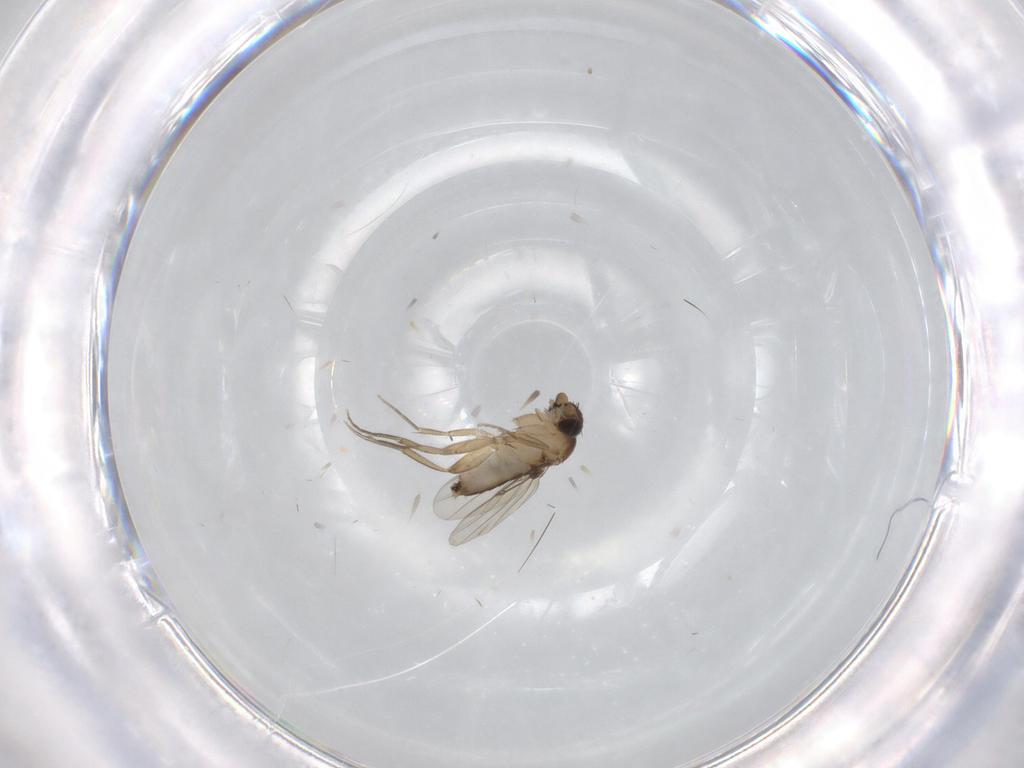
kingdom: Animalia
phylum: Arthropoda
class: Insecta
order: Diptera
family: Phoridae
